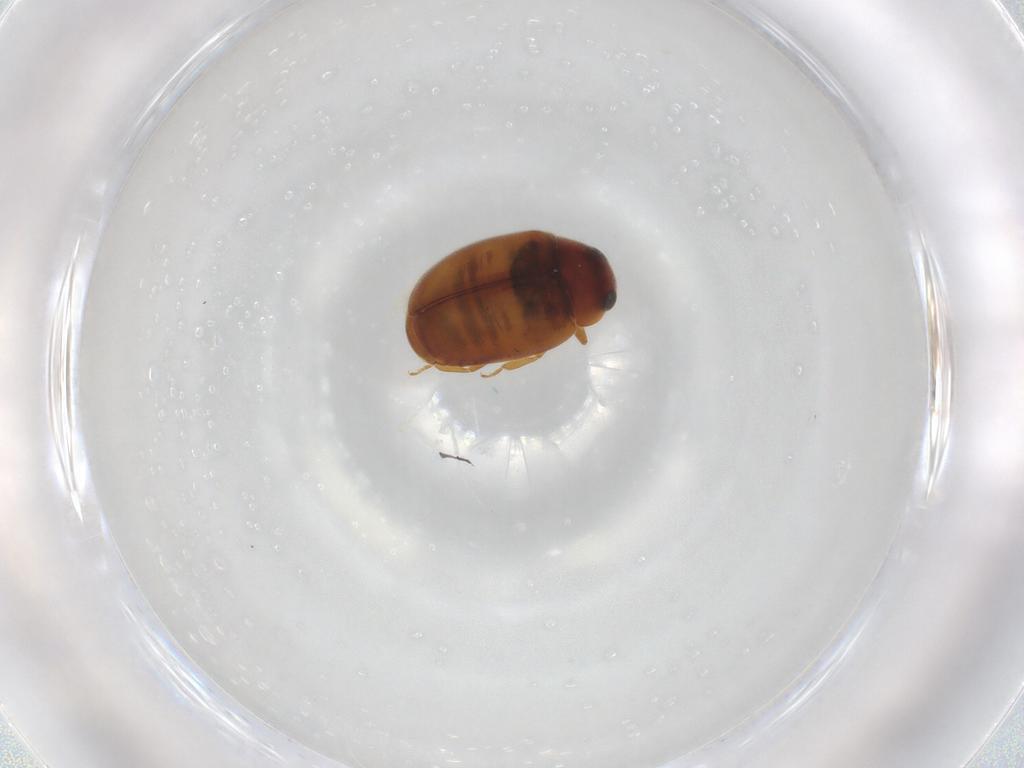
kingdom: Animalia
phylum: Arthropoda
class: Insecta
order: Coleoptera
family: Coccinellidae
